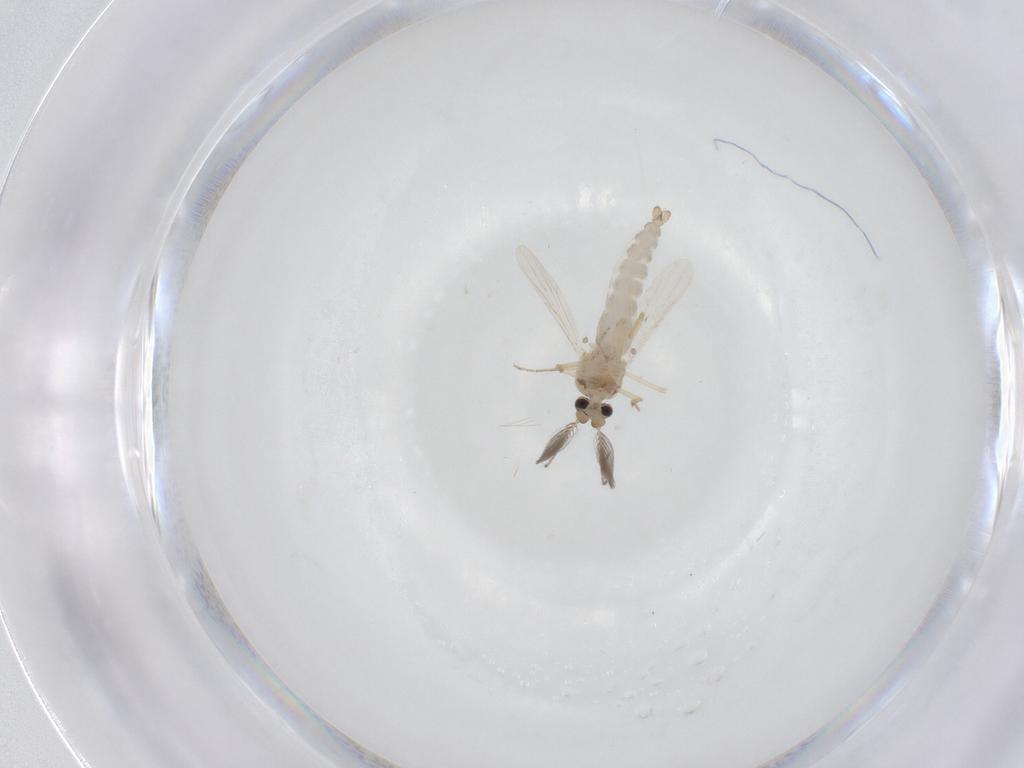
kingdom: Animalia
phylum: Arthropoda
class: Insecta
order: Diptera
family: Ceratopogonidae
